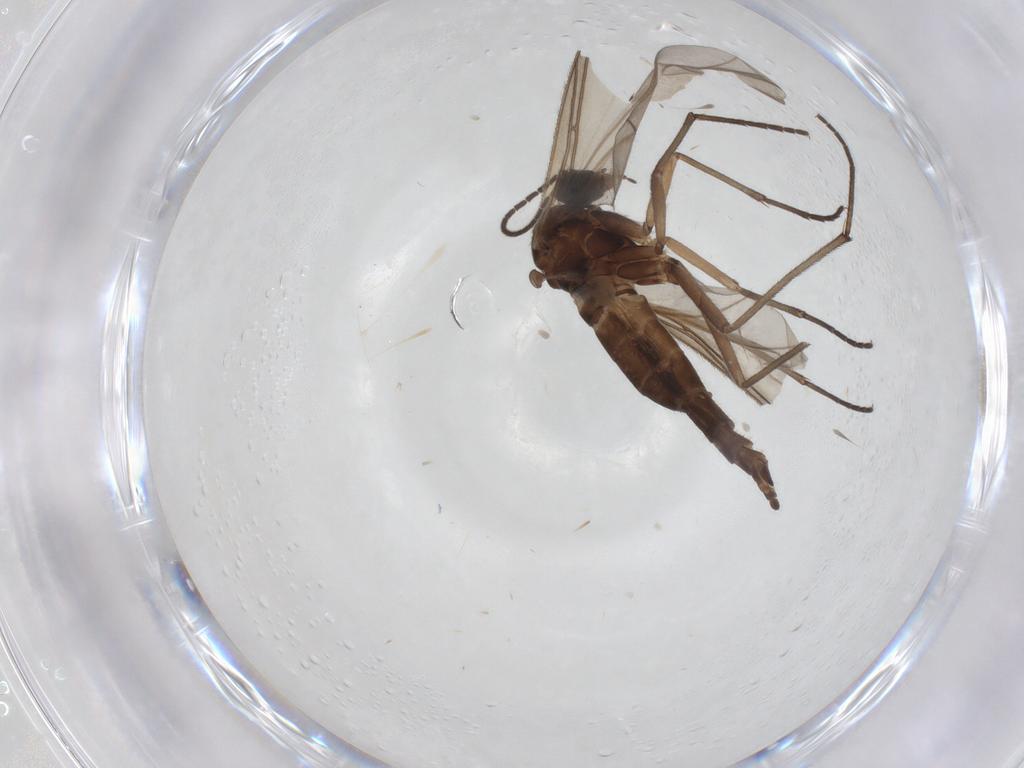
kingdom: Animalia
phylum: Arthropoda
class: Insecta
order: Diptera
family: Sciaridae
